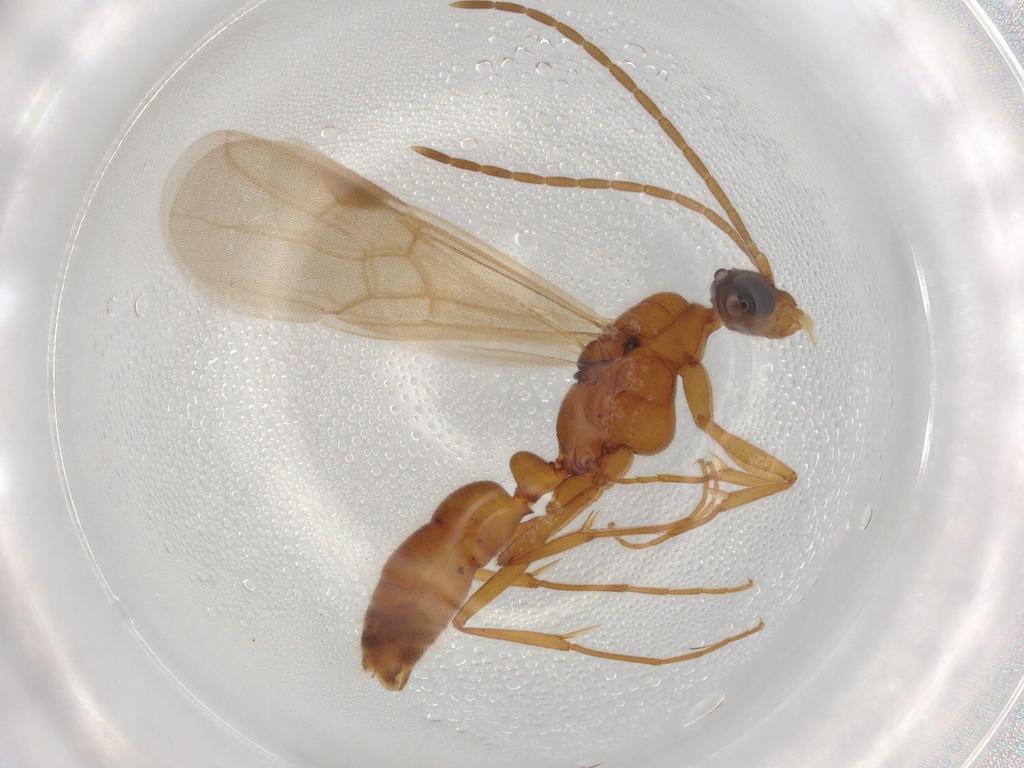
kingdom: Animalia
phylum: Arthropoda
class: Insecta
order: Hymenoptera
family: Formicidae
